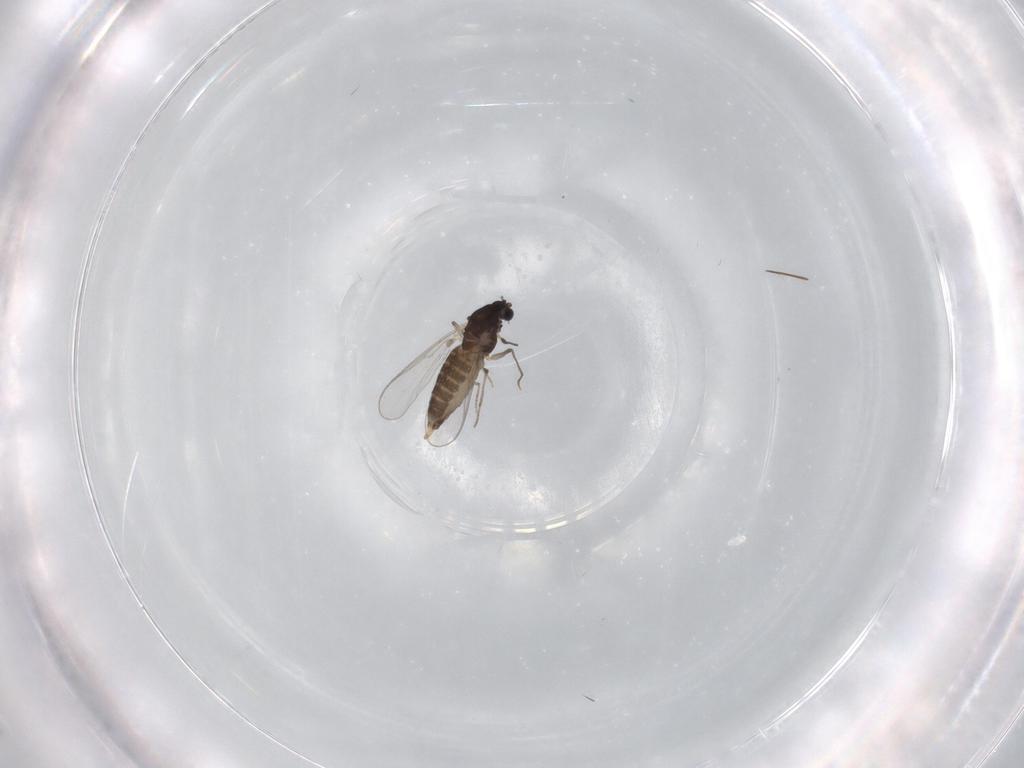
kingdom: Animalia
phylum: Arthropoda
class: Insecta
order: Diptera
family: Chironomidae
